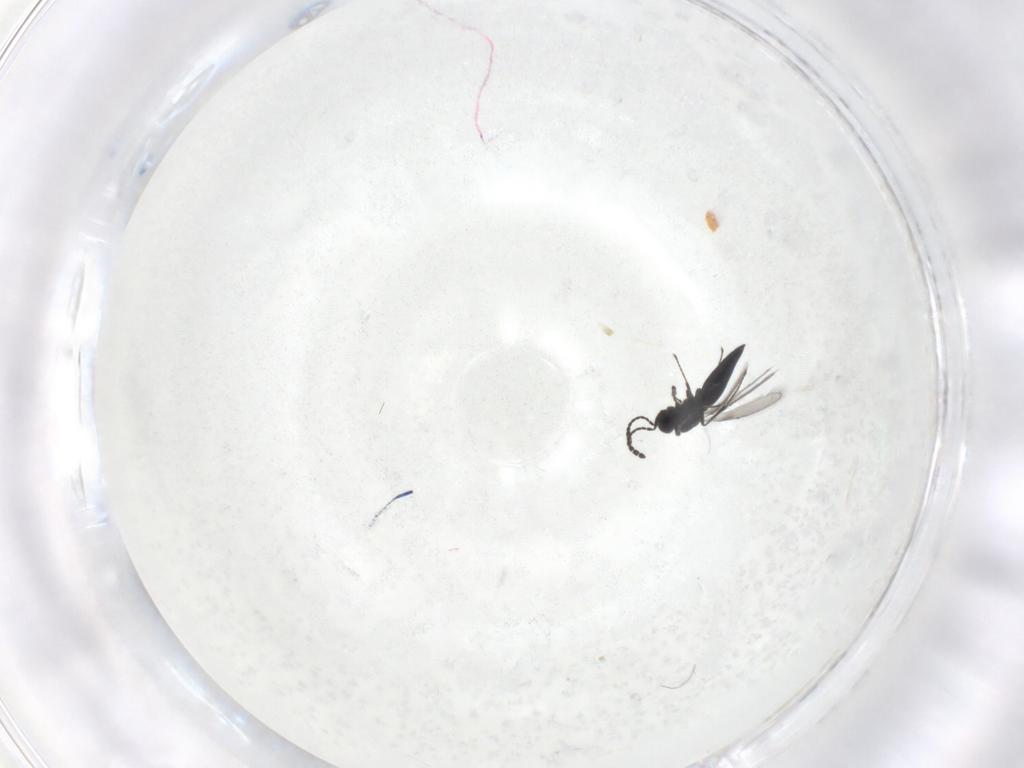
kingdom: Animalia
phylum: Arthropoda
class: Insecta
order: Hymenoptera
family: Scelionidae
